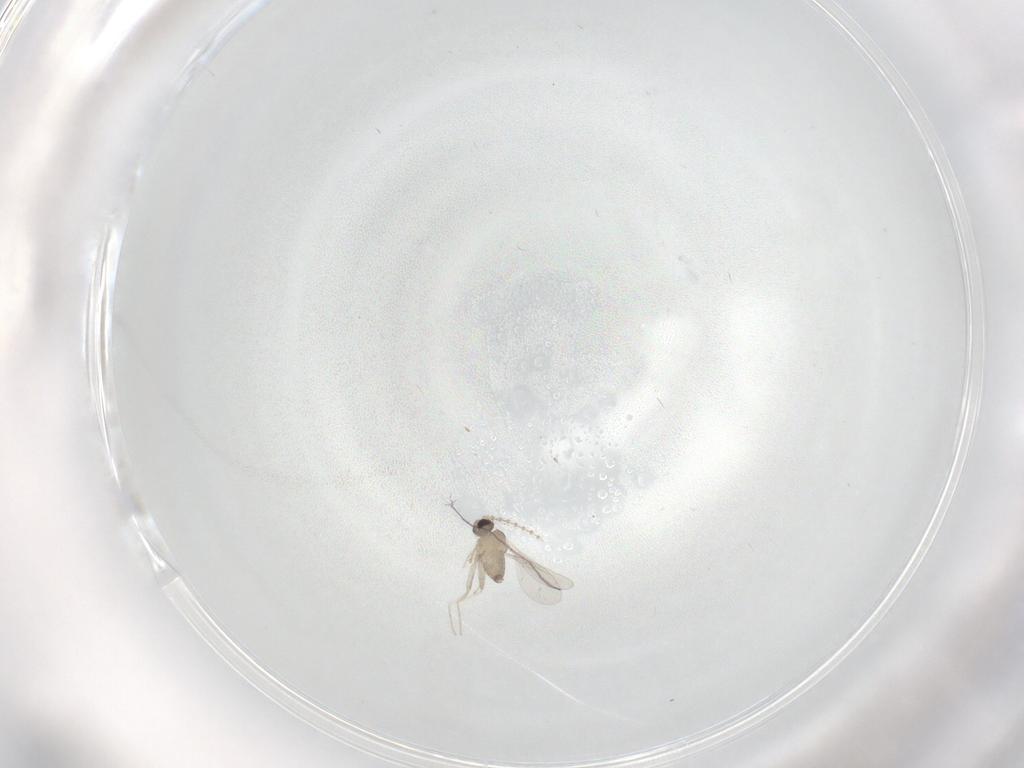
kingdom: Animalia
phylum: Arthropoda
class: Insecta
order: Diptera
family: Cecidomyiidae
